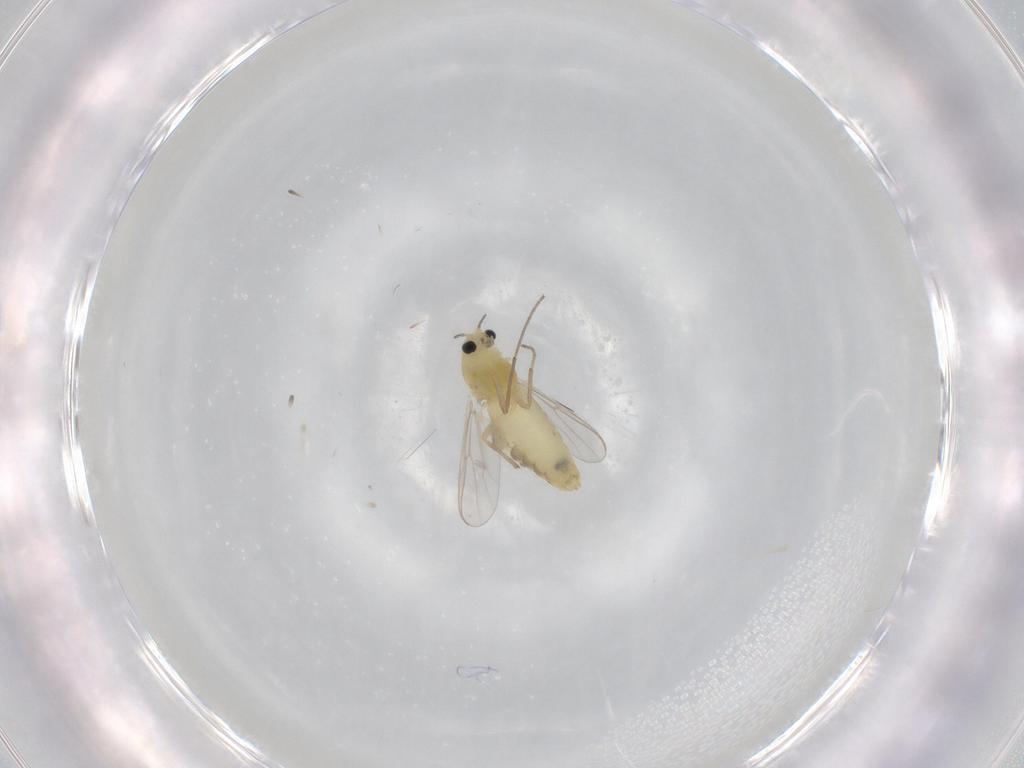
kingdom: Animalia
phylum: Arthropoda
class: Insecta
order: Diptera
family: Chironomidae
